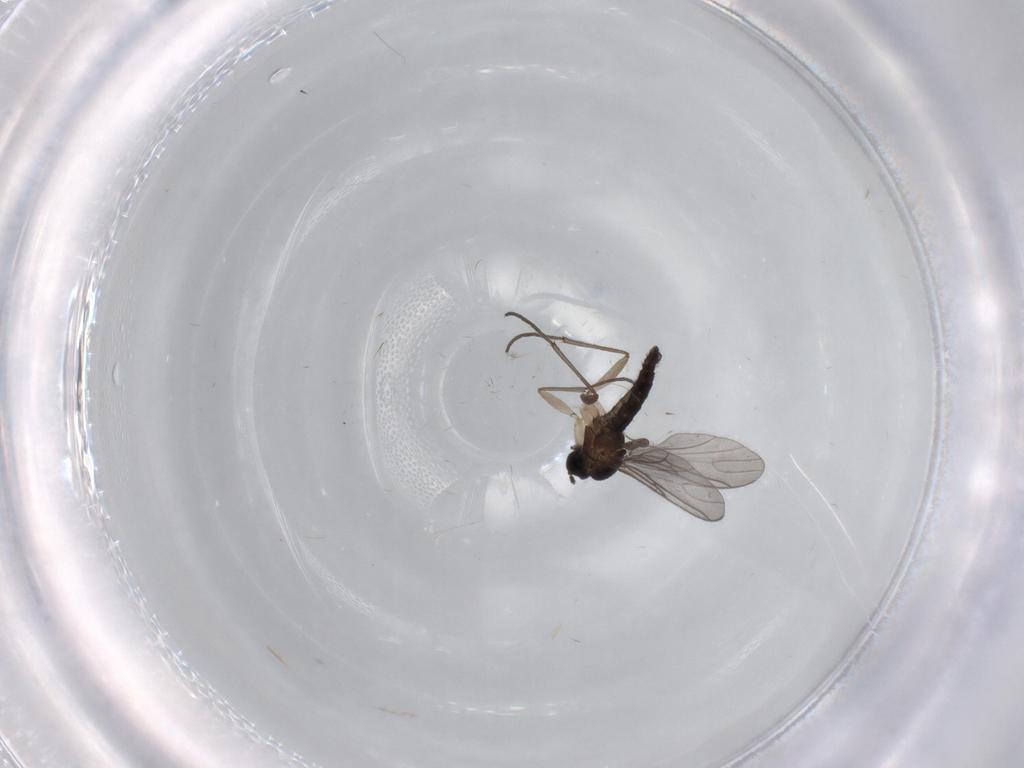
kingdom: Animalia
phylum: Arthropoda
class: Insecta
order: Diptera
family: Sciaridae
